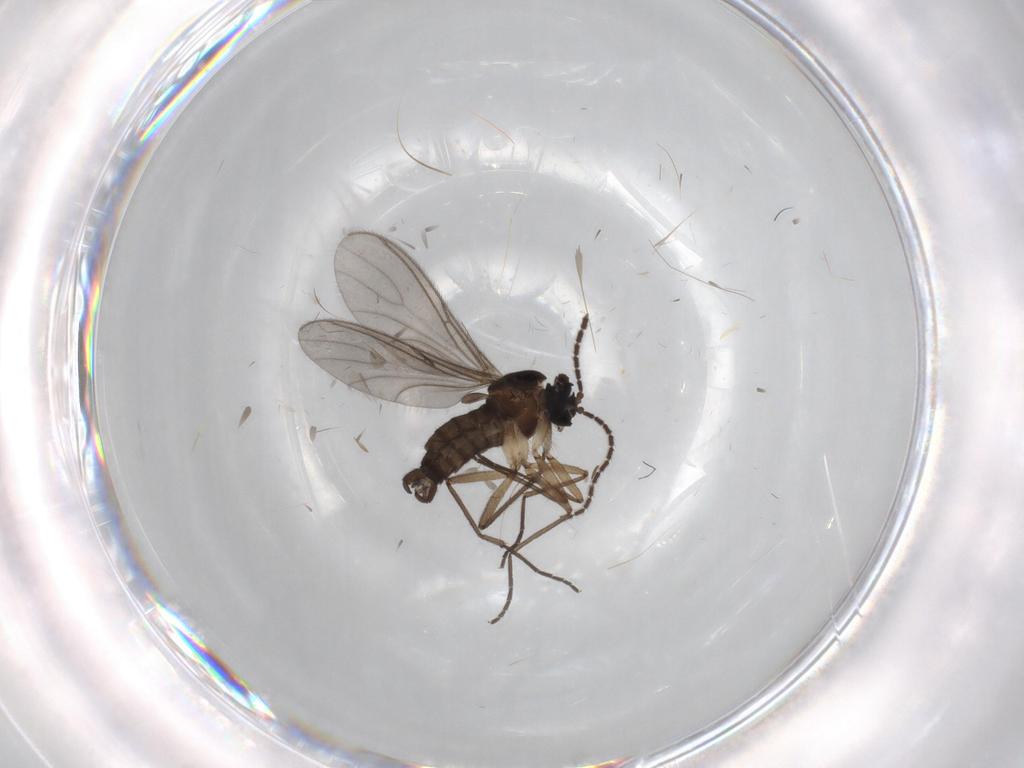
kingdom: Animalia
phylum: Arthropoda
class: Insecta
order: Diptera
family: Sciaridae
